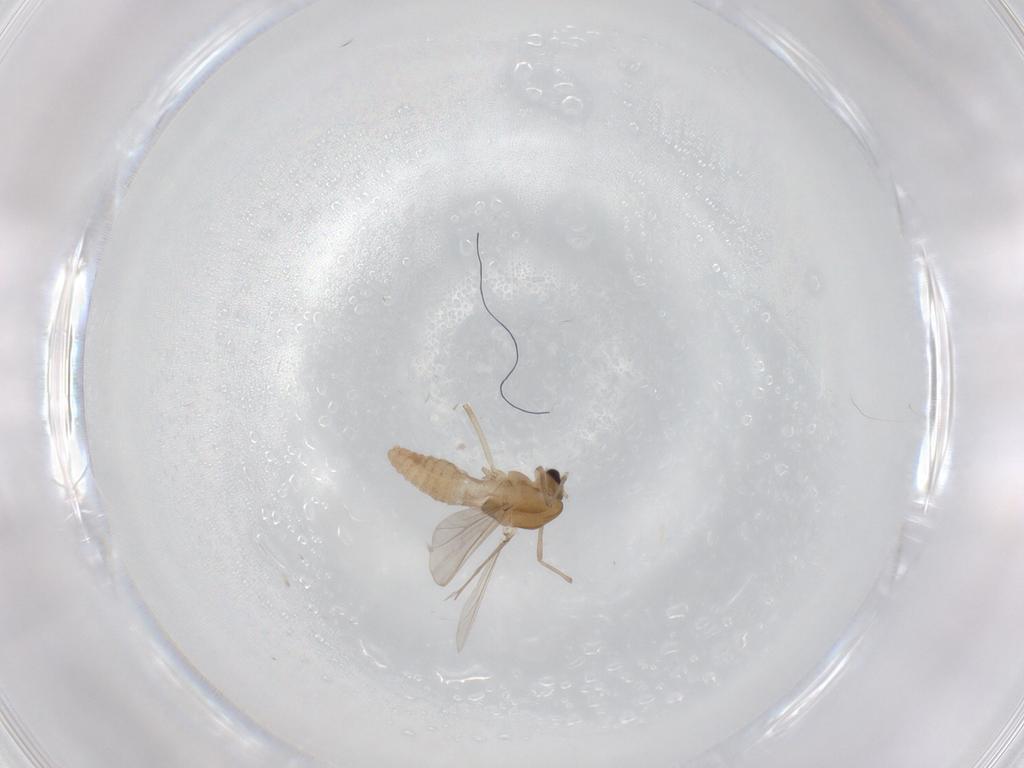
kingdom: Animalia
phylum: Arthropoda
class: Insecta
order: Diptera
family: Chironomidae
